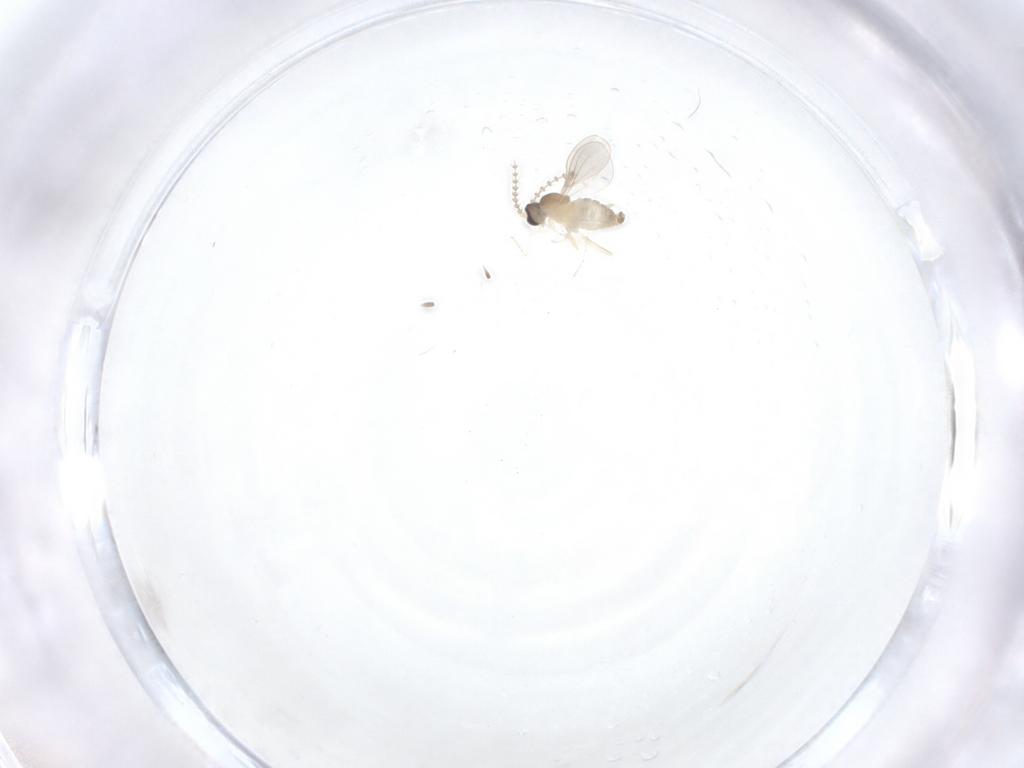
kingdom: Animalia
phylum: Arthropoda
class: Insecta
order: Diptera
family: Cecidomyiidae
